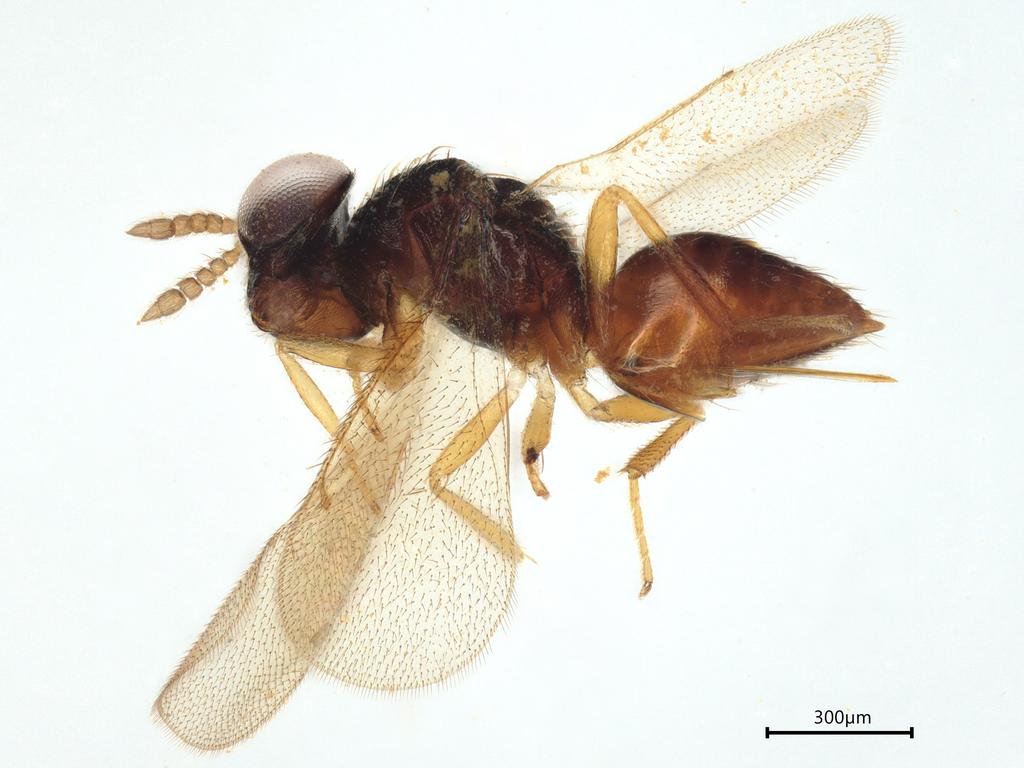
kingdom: Animalia
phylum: Arthropoda
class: Insecta
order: Hymenoptera
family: Eulophidae
